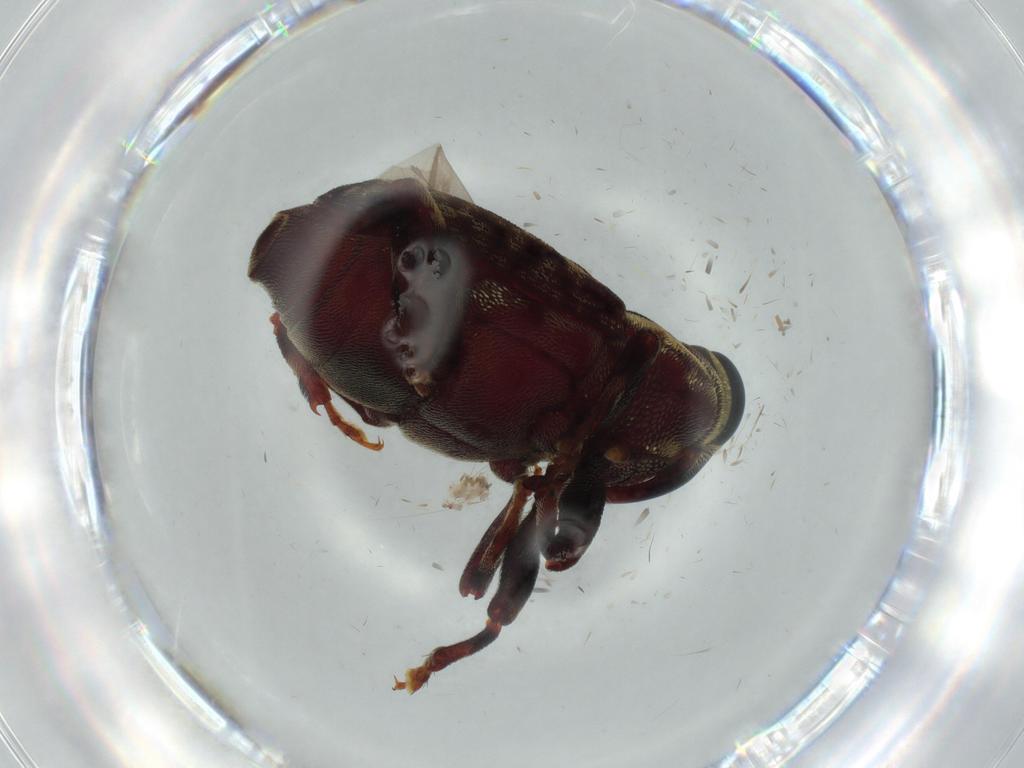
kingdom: Animalia
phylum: Arthropoda
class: Insecta
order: Coleoptera
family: Curculionidae
